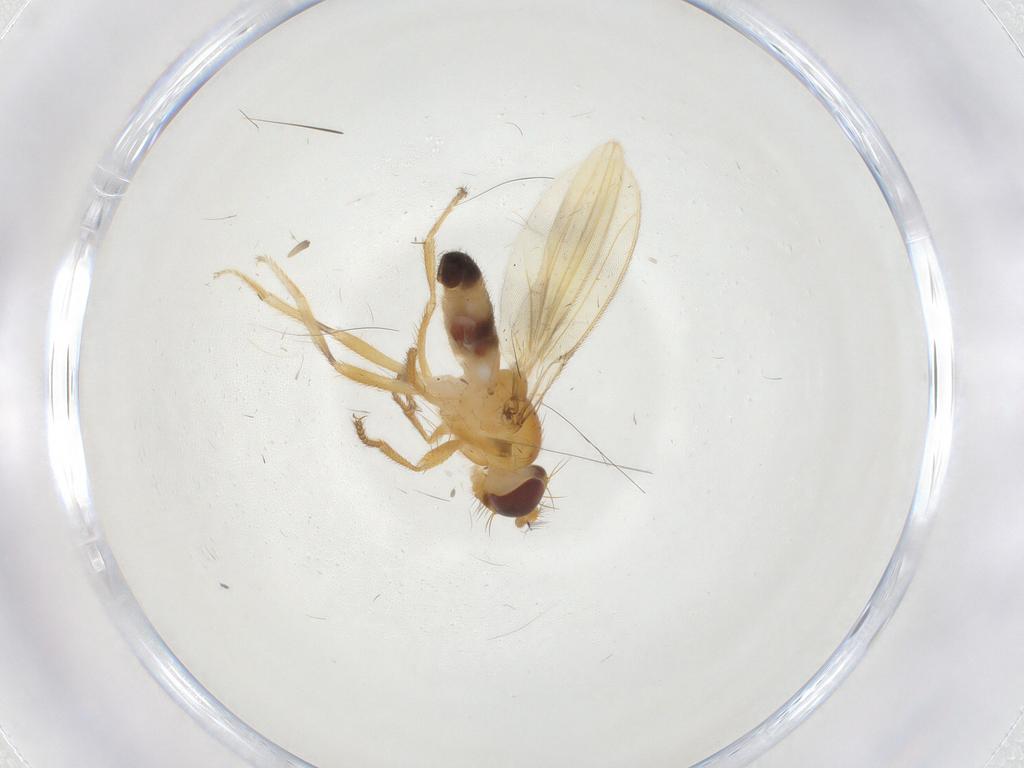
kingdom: Animalia
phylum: Arthropoda
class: Insecta
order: Diptera
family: Periscelididae
